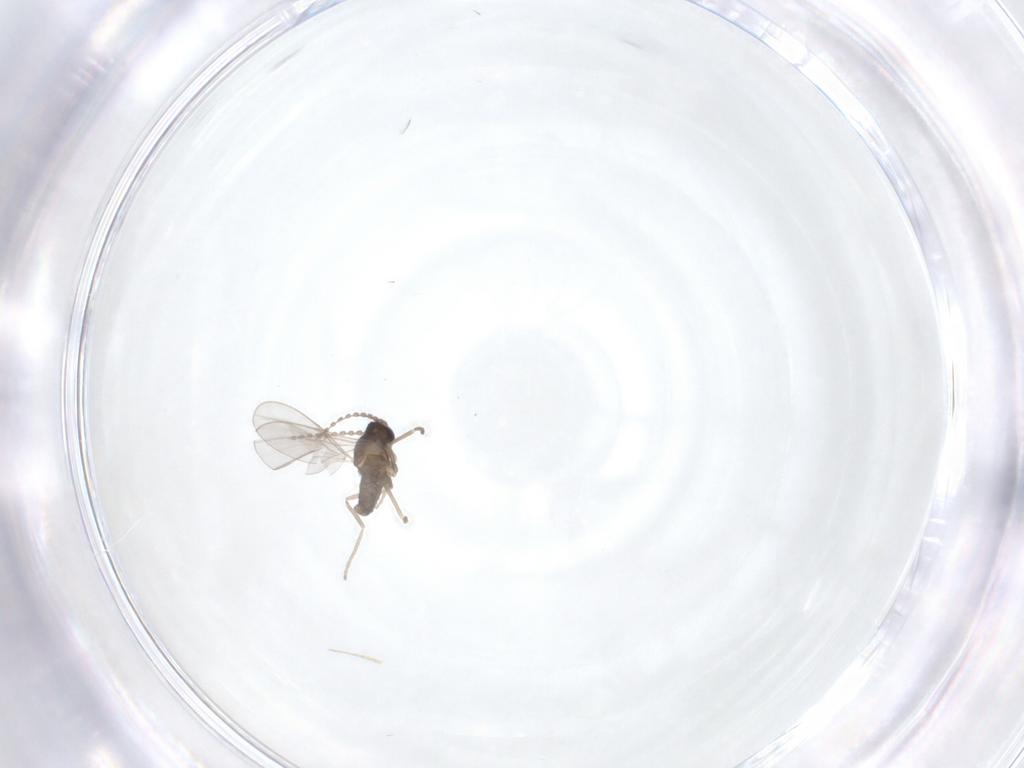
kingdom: Animalia
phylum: Arthropoda
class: Insecta
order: Diptera
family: Cecidomyiidae
